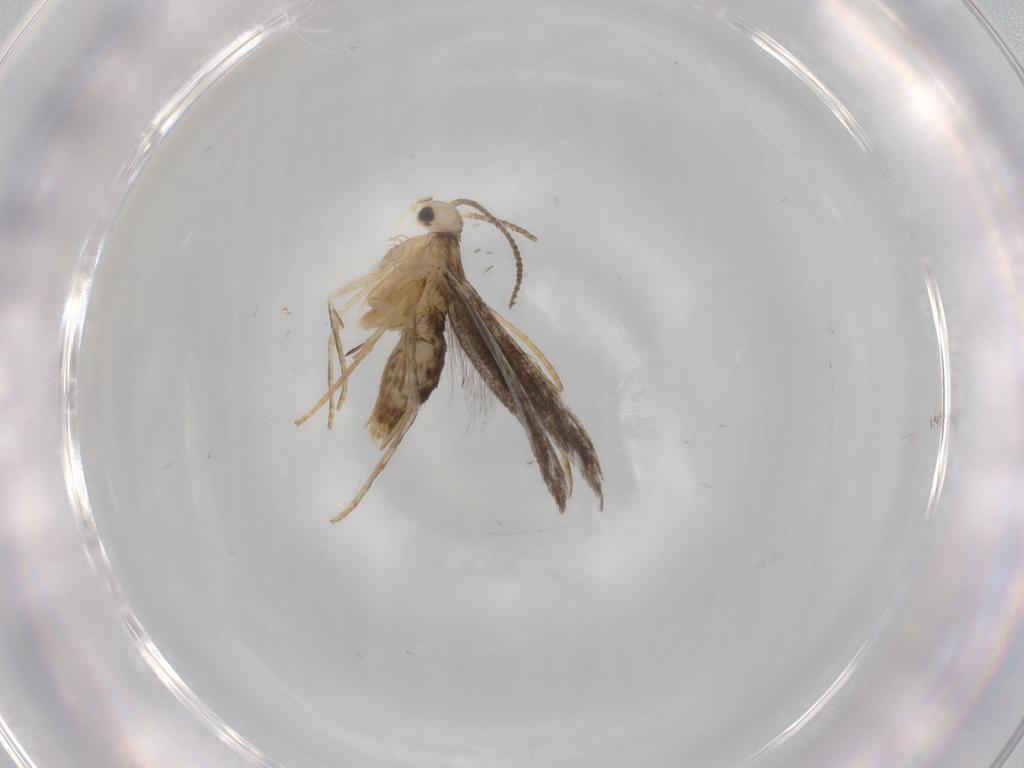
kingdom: Animalia
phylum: Arthropoda
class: Insecta
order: Lepidoptera
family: Schreckensteiniidae
